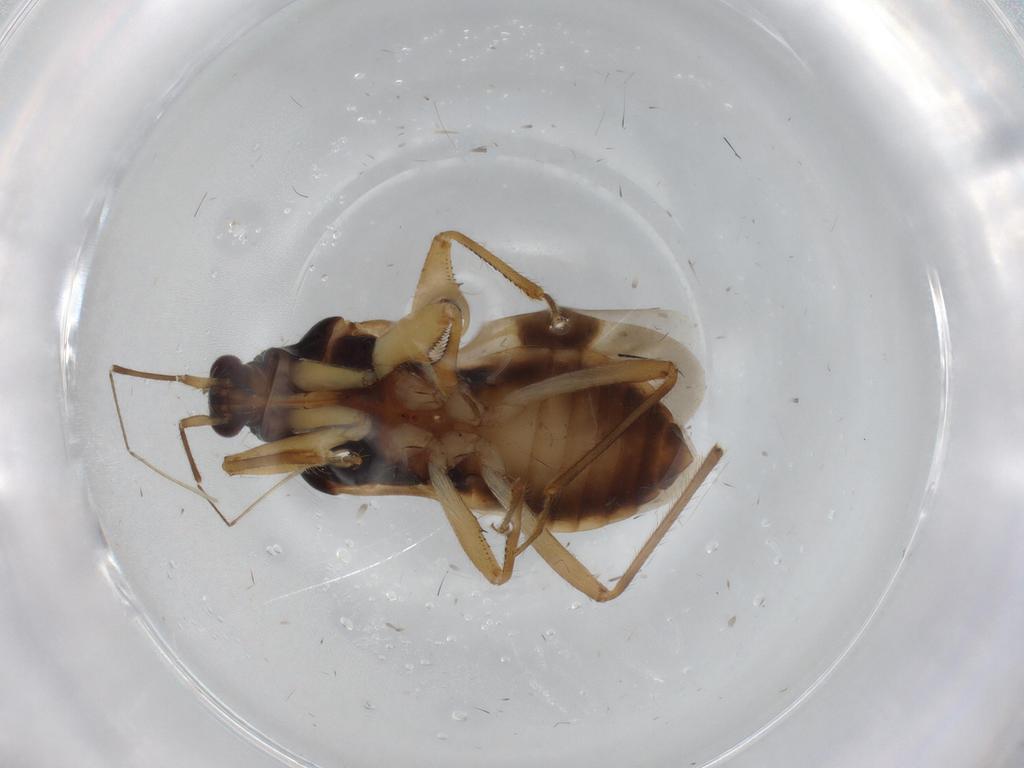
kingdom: Animalia
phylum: Arthropoda
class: Insecta
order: Hemiptera
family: Nabidae
